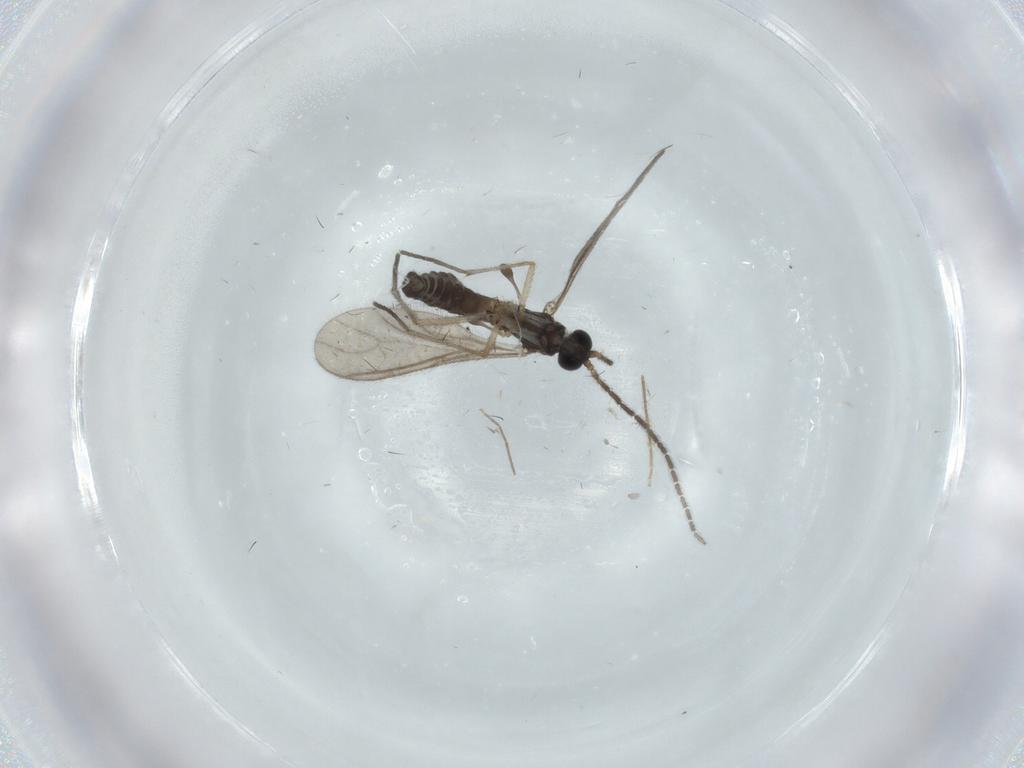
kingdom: Animalia
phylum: Arthropoda
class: Insecta
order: Diptera
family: Sciaridae
